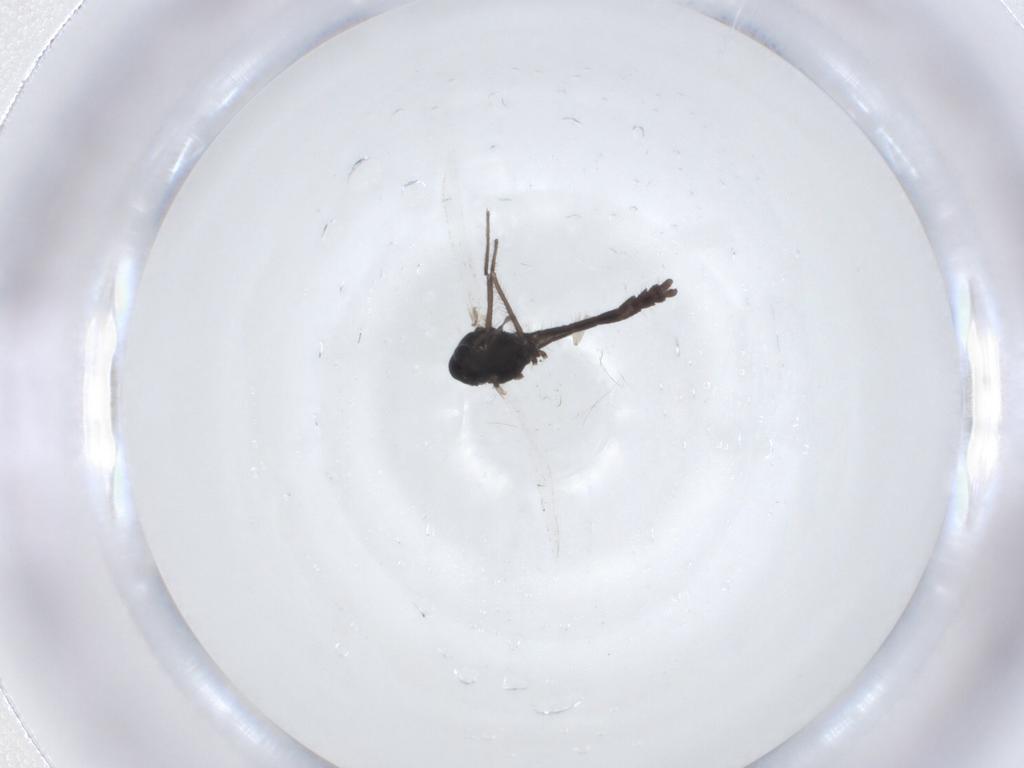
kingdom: Animalia
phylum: Arthropoda
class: Insecta
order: Diptera
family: Cecidomyiidae
